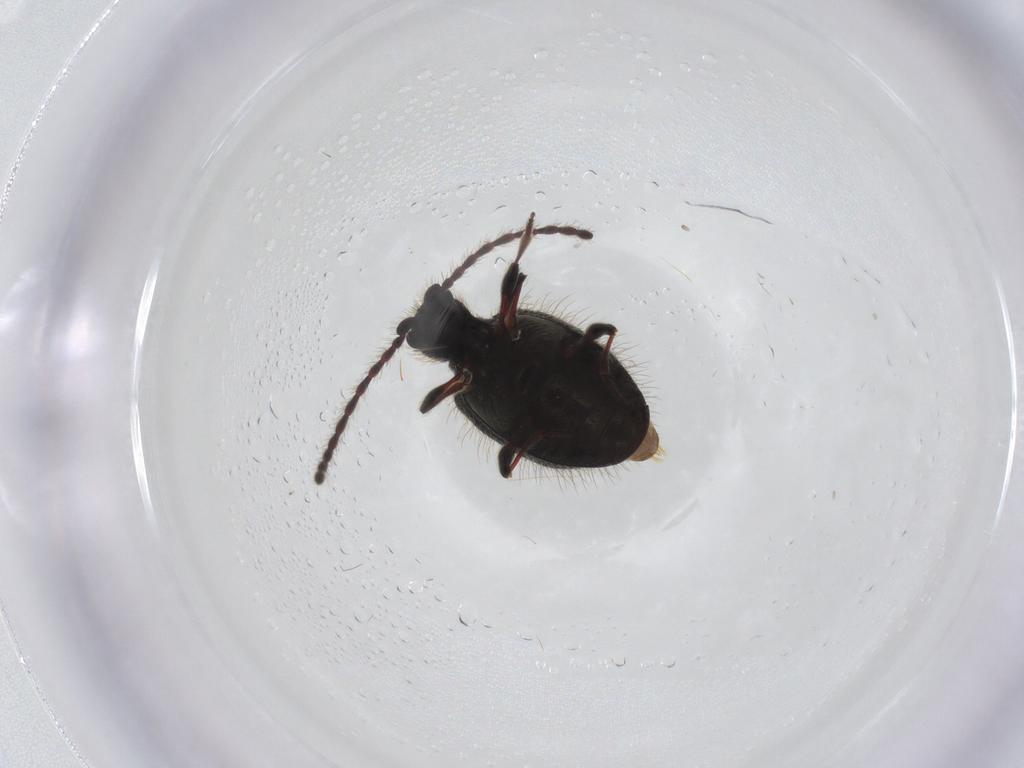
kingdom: Animalia
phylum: Arthropoda
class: Insecta
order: Coleoptera
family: Ptinidae
